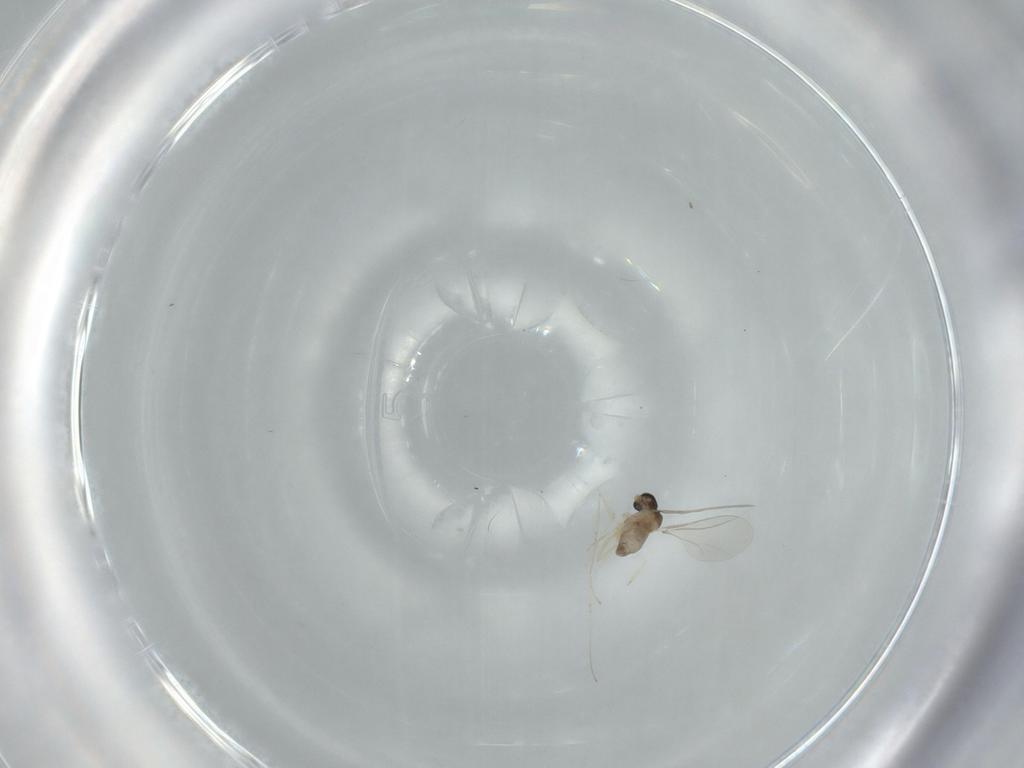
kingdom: Animalia
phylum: Arthropoda
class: Insecta
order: Diptera
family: Cecidomyiidae
